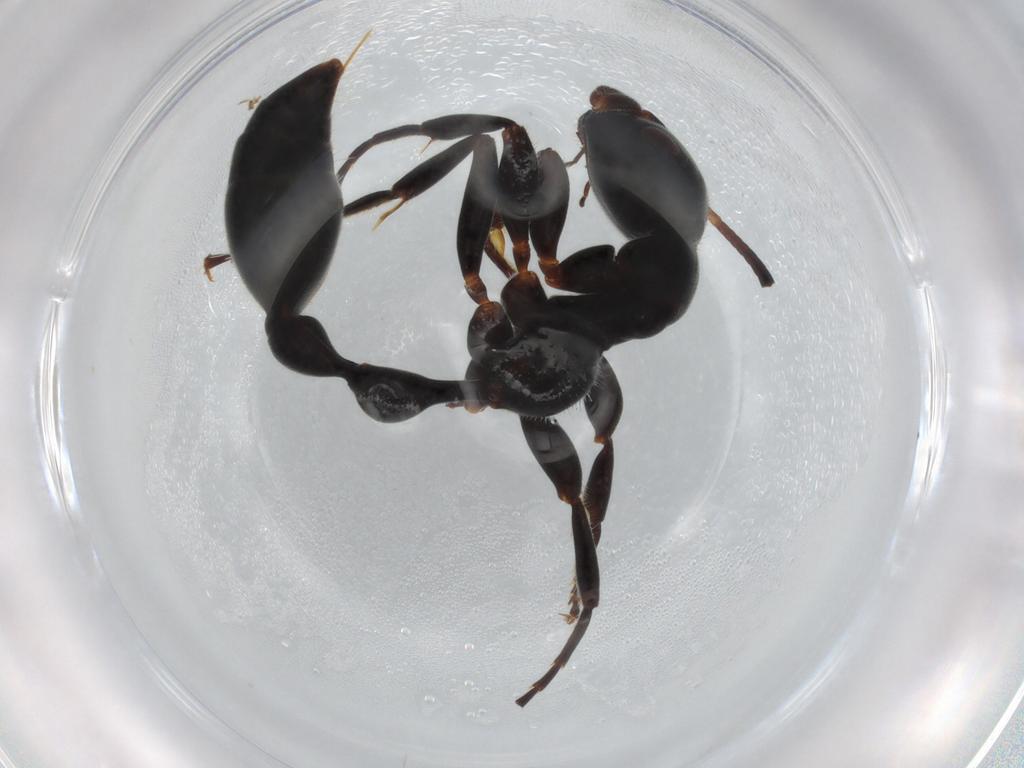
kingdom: Animalia
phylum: Arthropoda
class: Insecta
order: Hymenoptera
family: Formicidae
